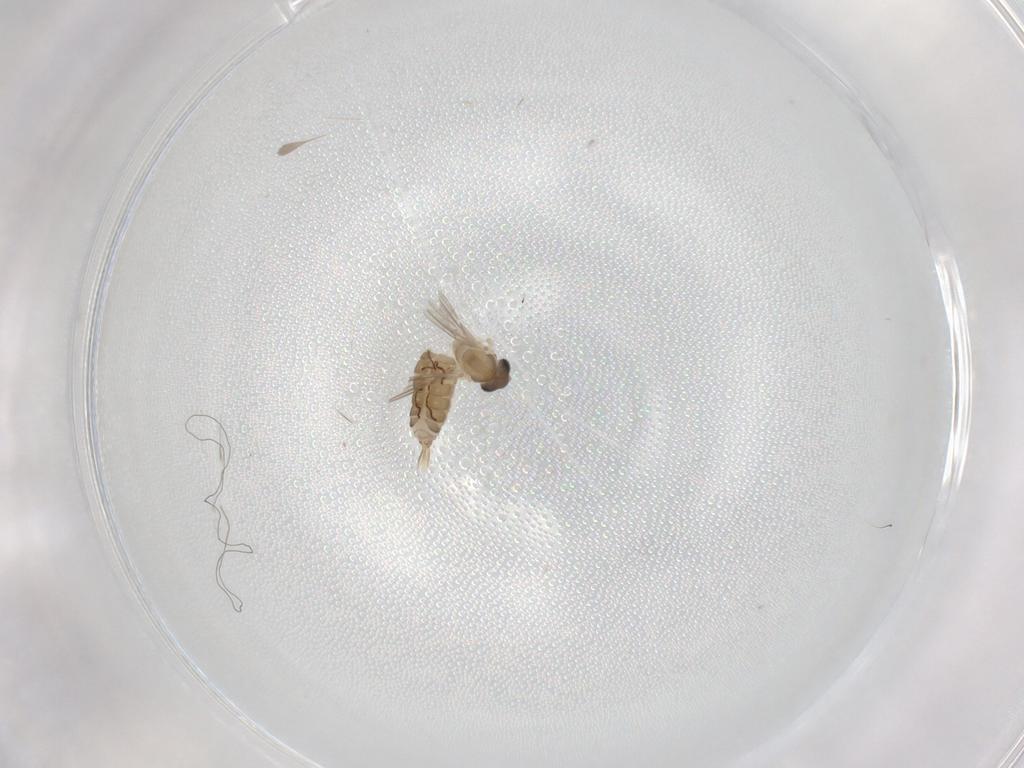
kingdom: Animalia
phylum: Arthropoda
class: Insecta
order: Diptera
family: Psychodidae
